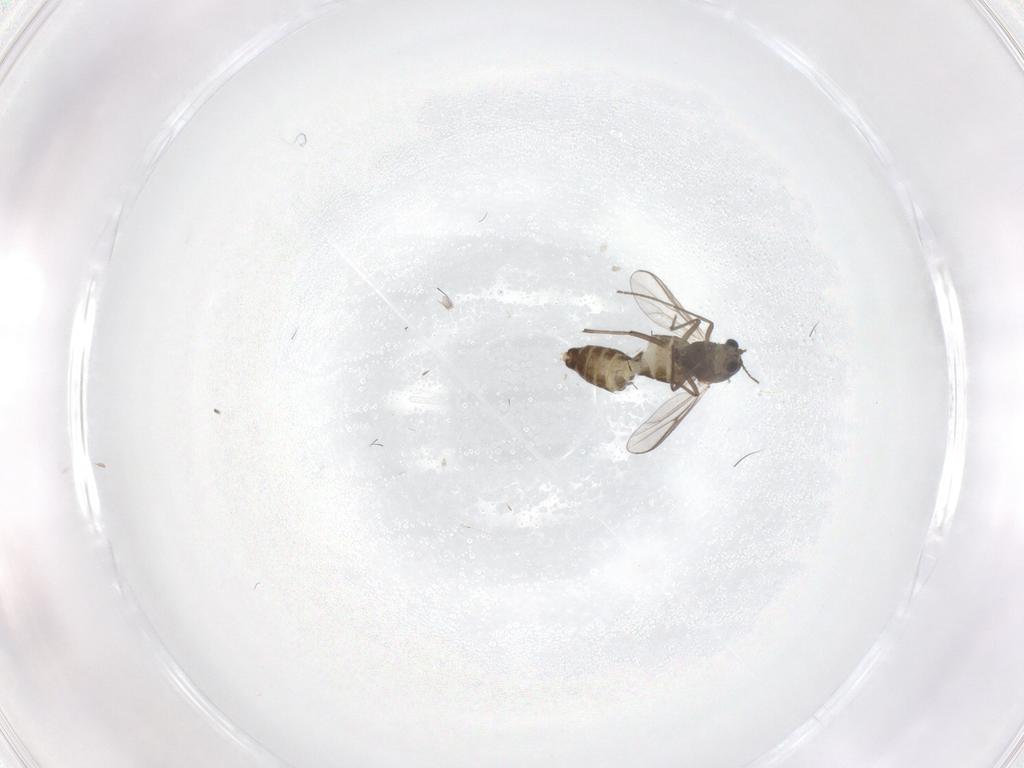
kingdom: Animalia
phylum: Arthropoda
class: Insecta
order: Diptera
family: Chironomidae
